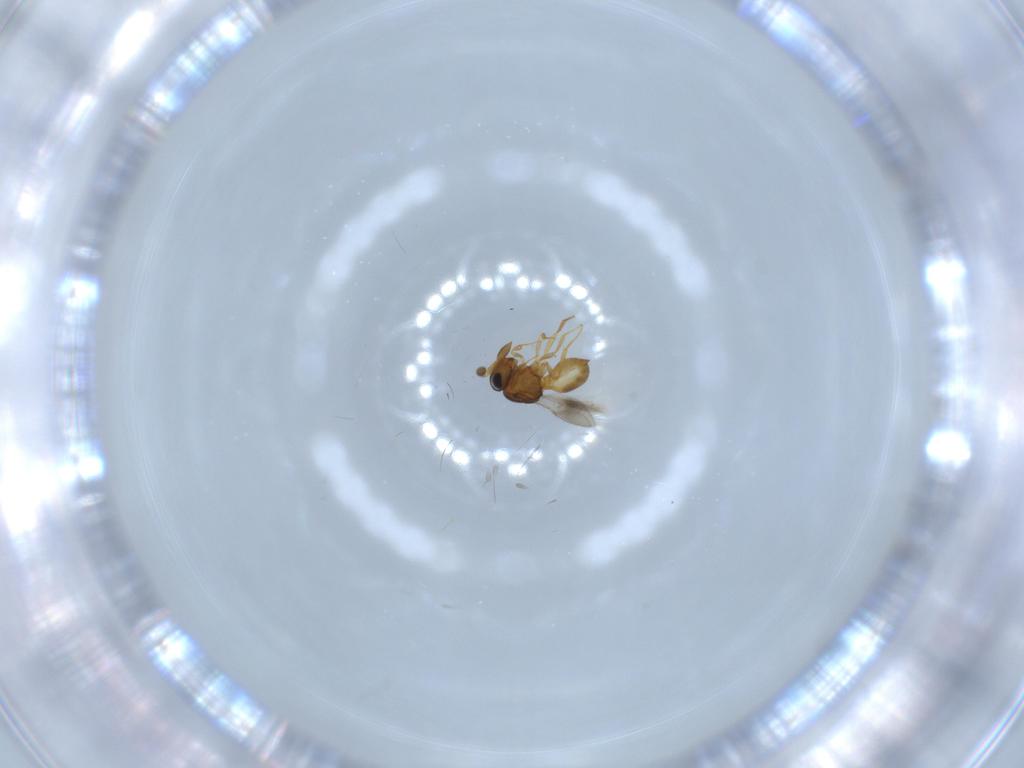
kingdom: Animalia
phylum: Arthropoda
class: Insecta
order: Hymenoptera
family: Scelionidae
